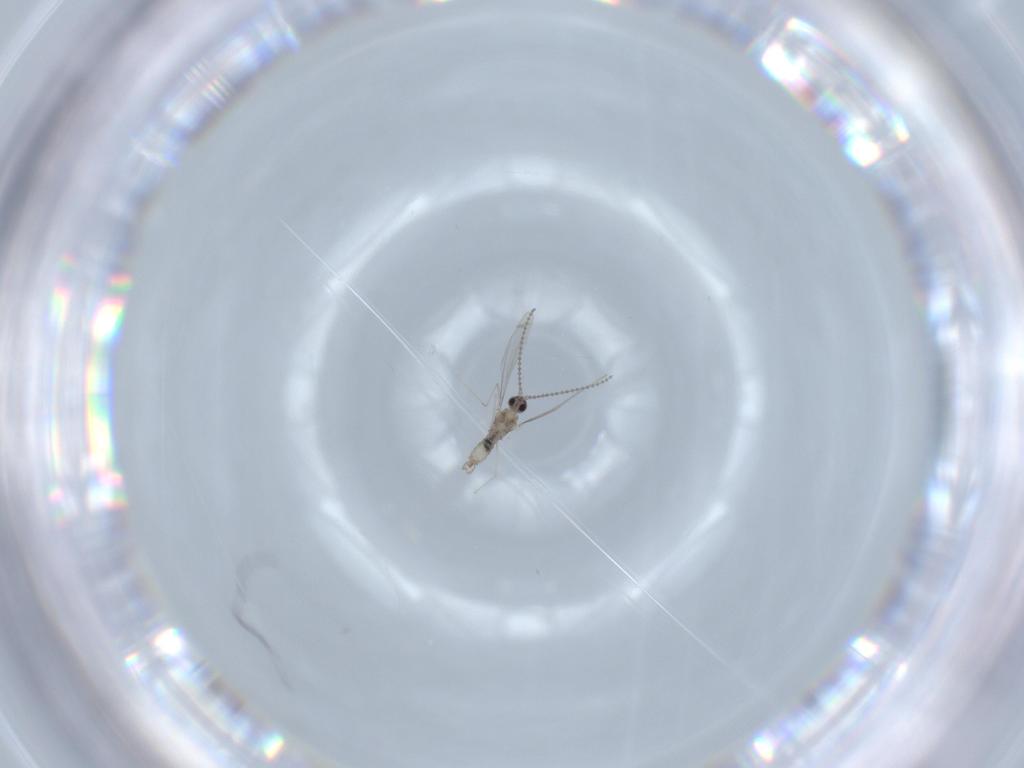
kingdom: Animalia
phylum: Arthropoda
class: Insecta
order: Diptera
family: Cecidomyiidae
